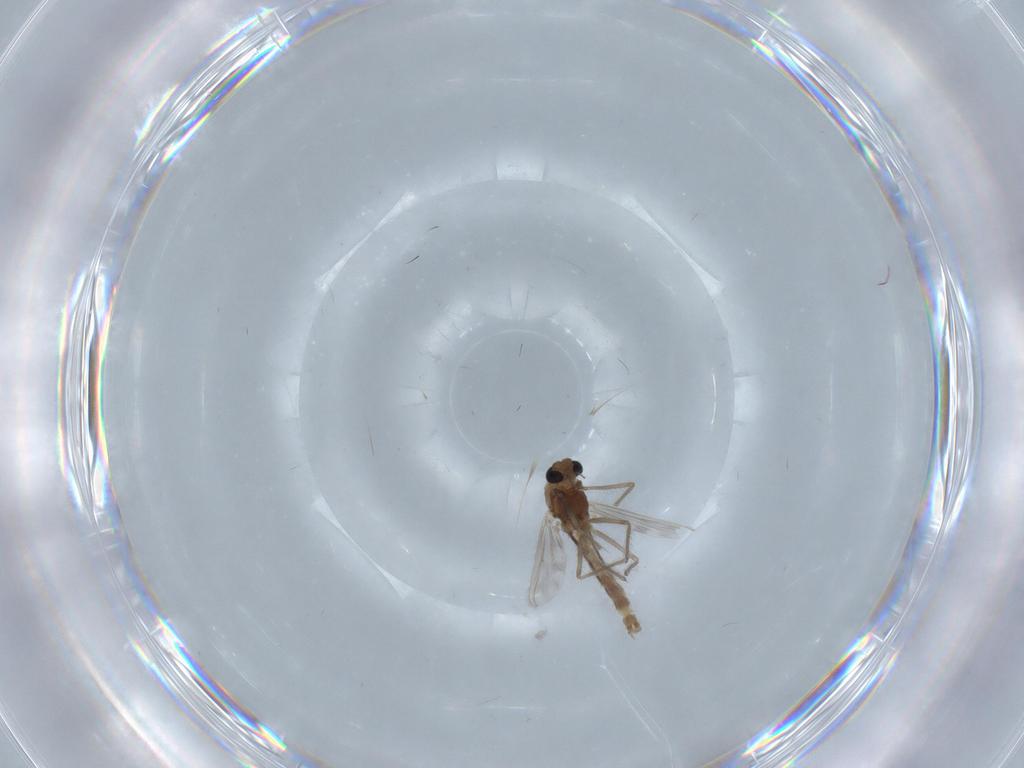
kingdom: Animalia
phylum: Arthropoda
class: Insecta
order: Diptera
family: Chironomidae
